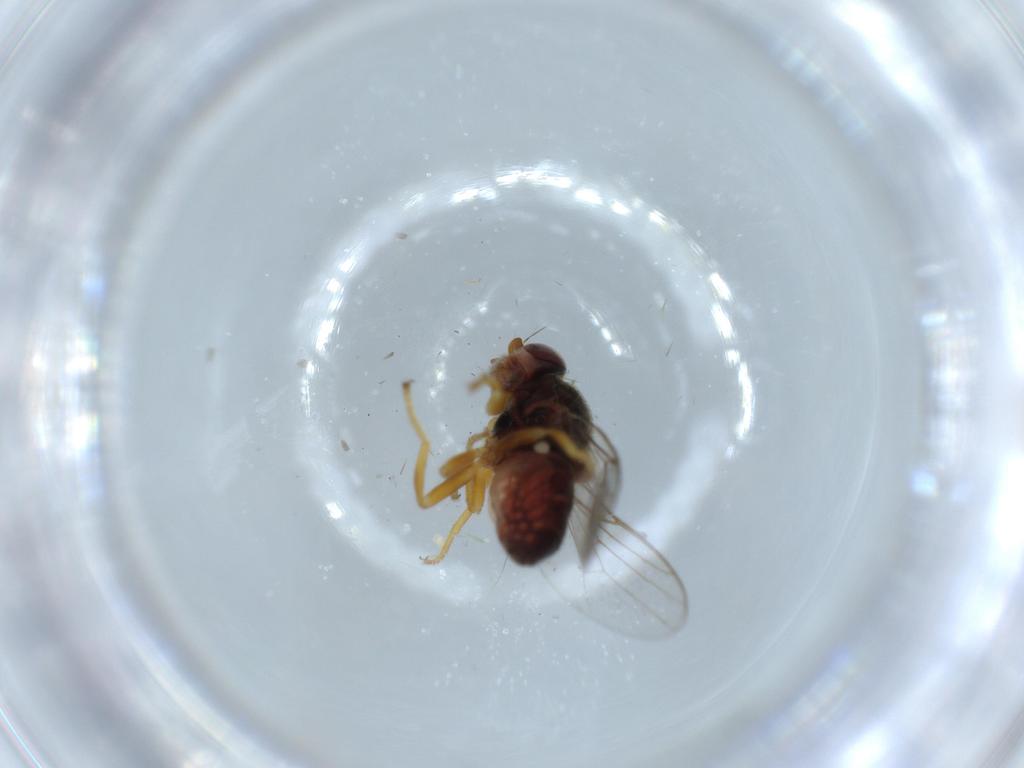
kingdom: Animalia
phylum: Arthropoda
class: Insecta
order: Diptera
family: Chloropidae
